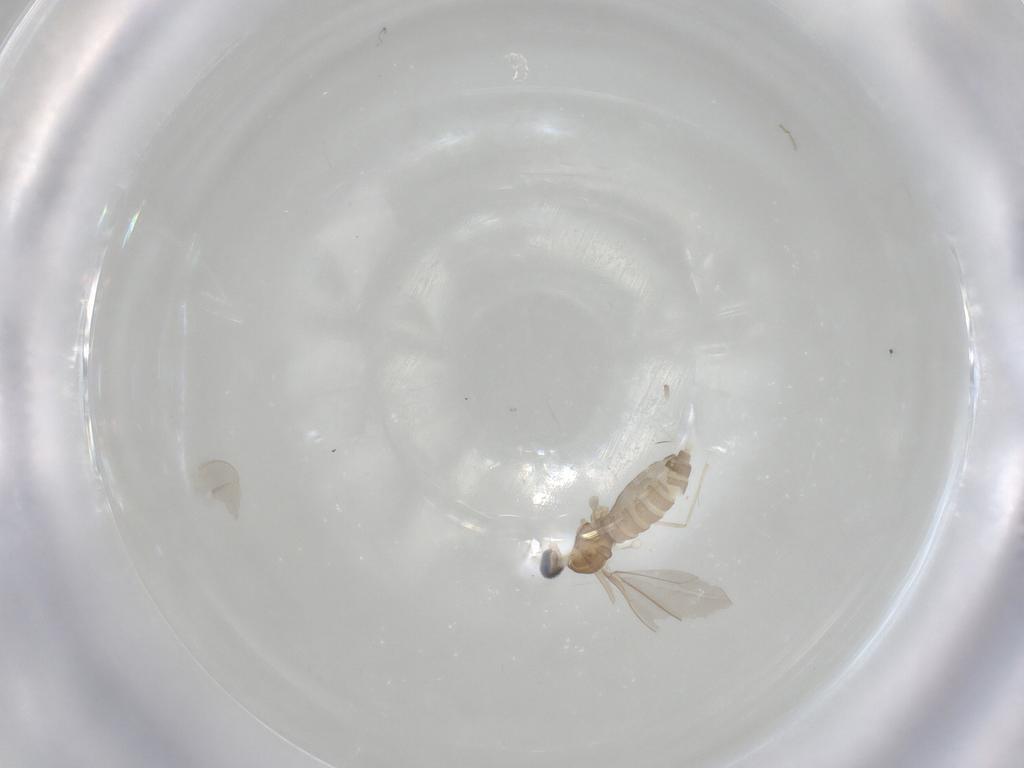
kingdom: Animalia
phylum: Arthropoda
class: Insecta
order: Diptera
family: Cecidomyiidae
